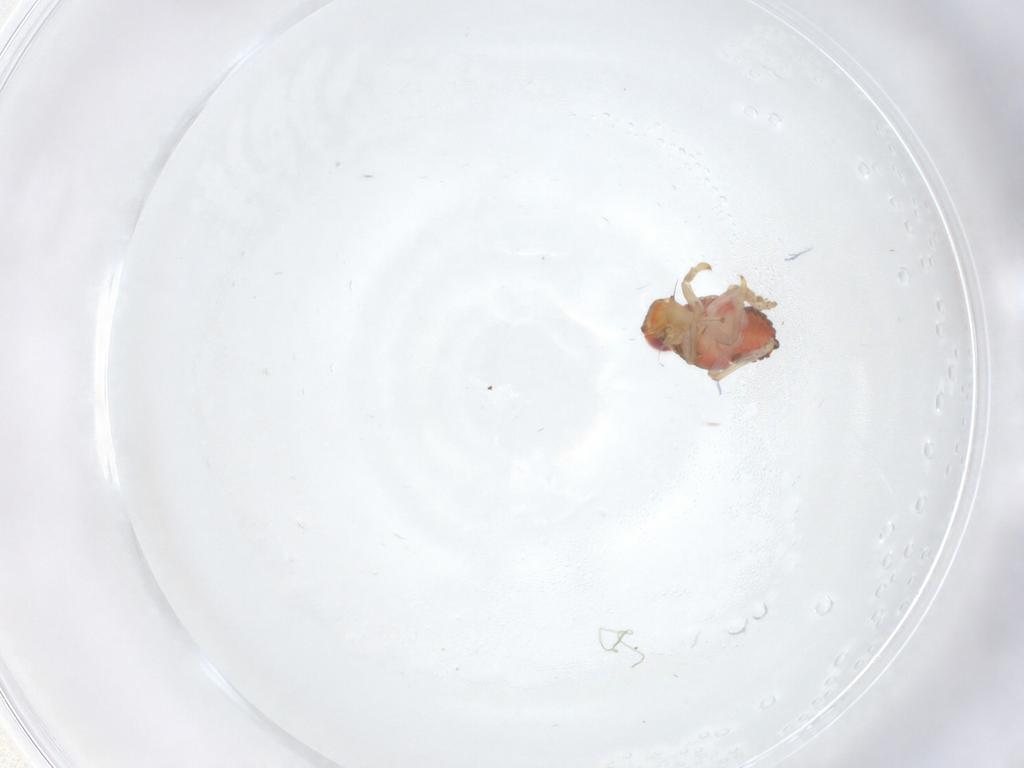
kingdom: Animalia
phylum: Arthropoda
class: Insecta
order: Hemiptera
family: Issidae
